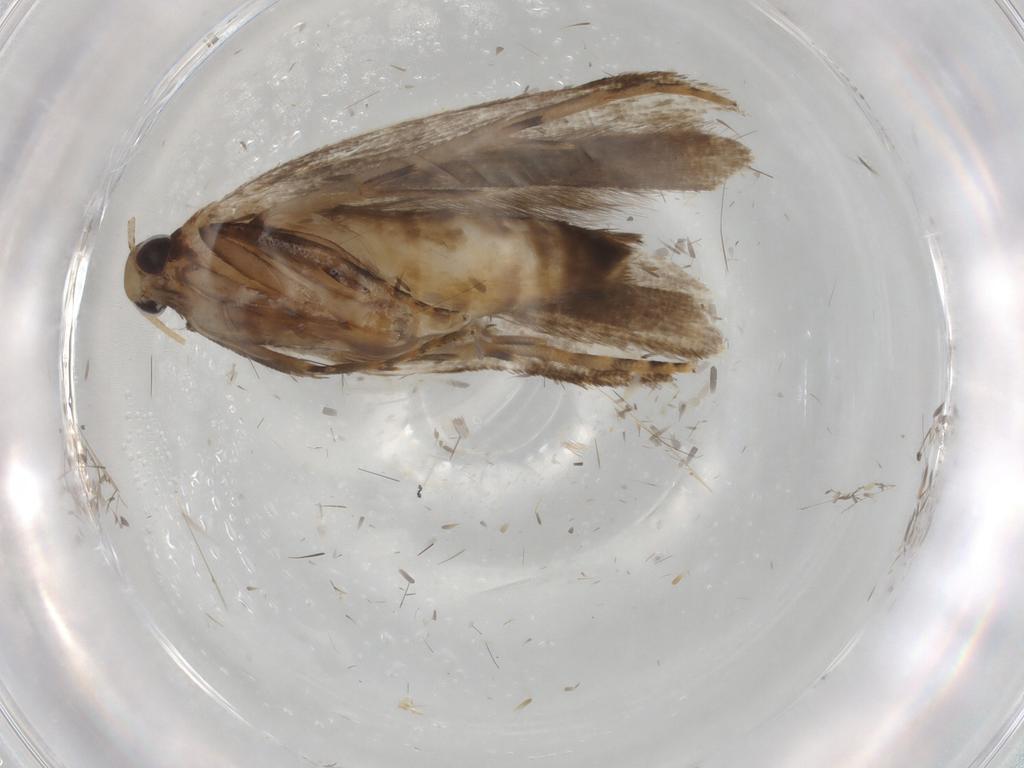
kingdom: Animalia
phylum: Arthropoda
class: Insecta
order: Lepidoptera
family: Gelechiidae
